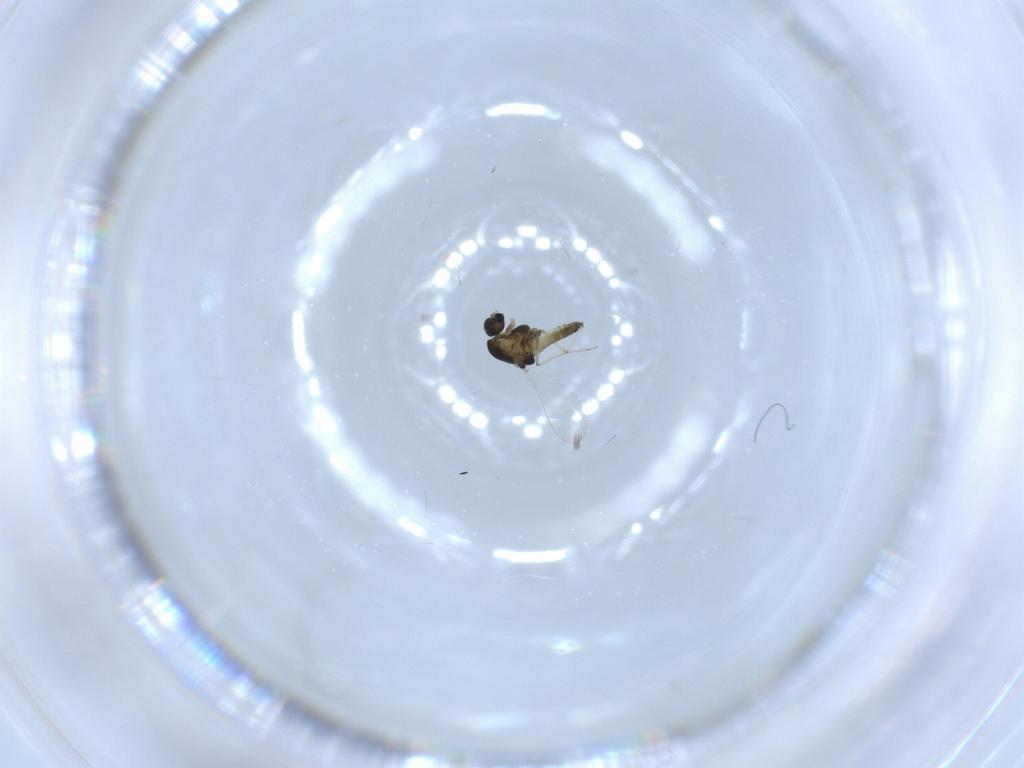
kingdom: Animalia
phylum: Arthropoda
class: Insecta
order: Diptera
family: Chironomidae
